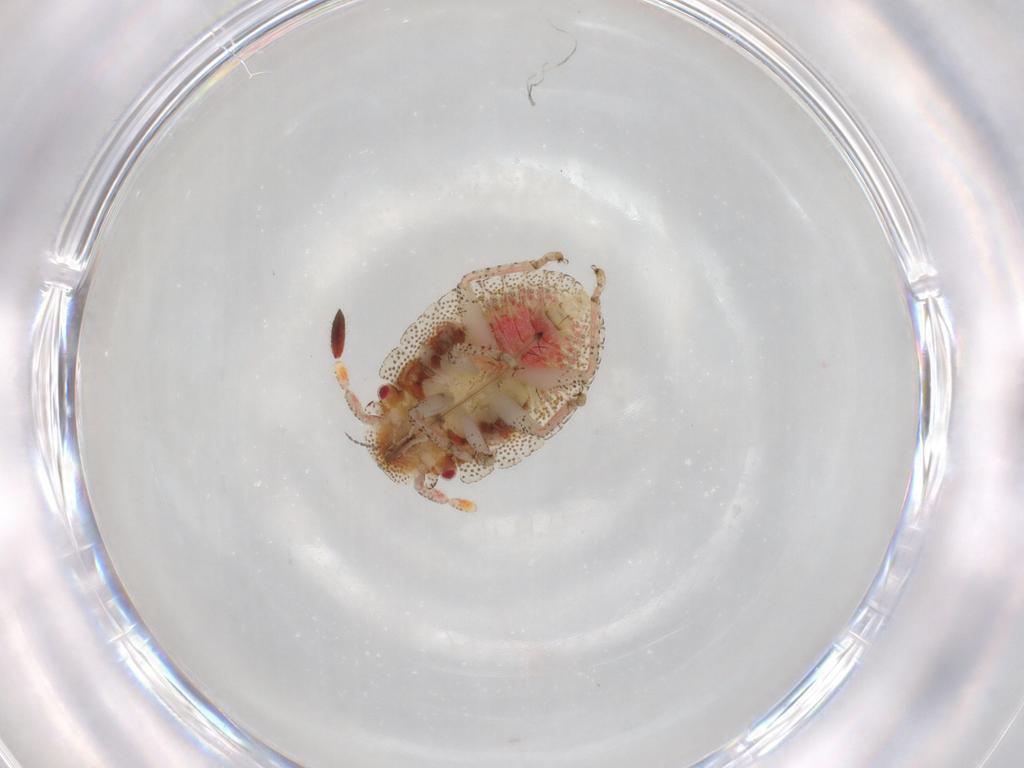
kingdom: Animalia
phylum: Arthropoda
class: Insecta
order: Hemiptera
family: Pentatomidae
